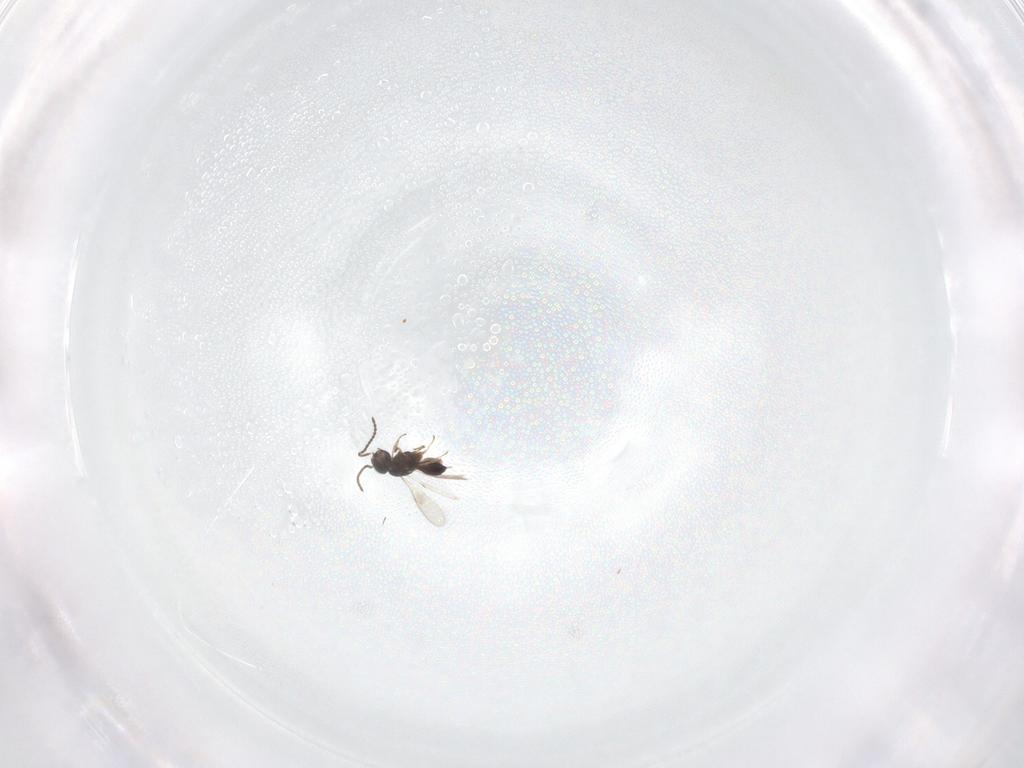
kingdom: Animalia
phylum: Arthropoda
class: Insecta
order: Hymenoptera
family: Scelionidae
